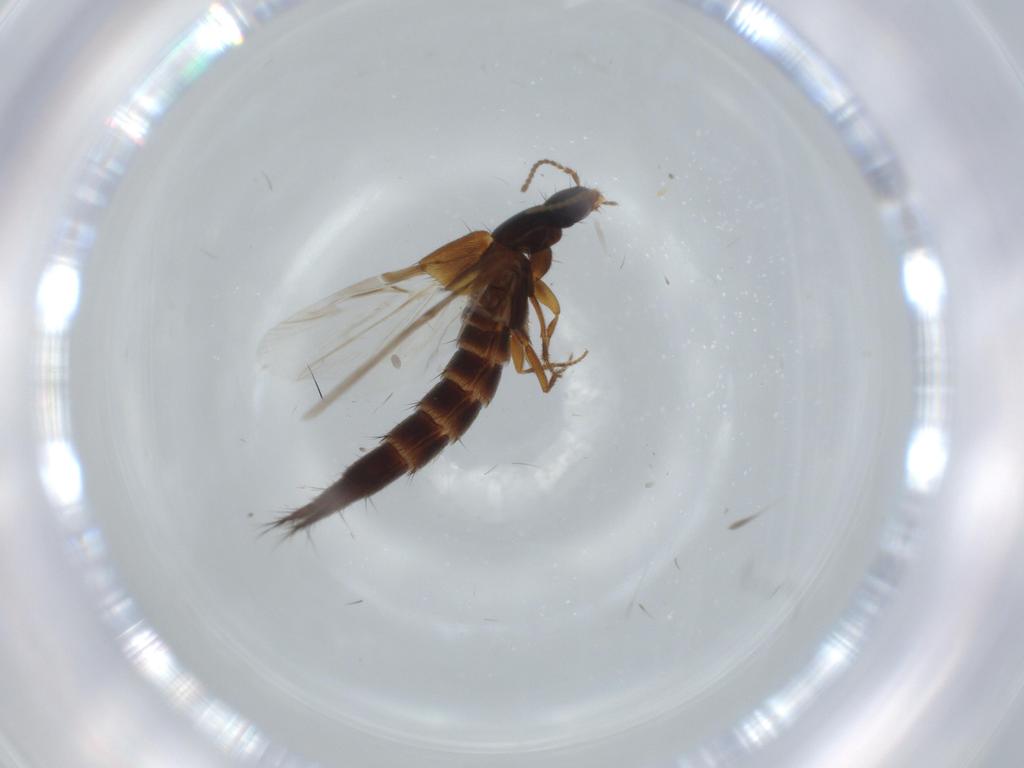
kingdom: Animalia
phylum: Arthropoda
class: Insecta
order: Coleoptera
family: Staphylinidae
